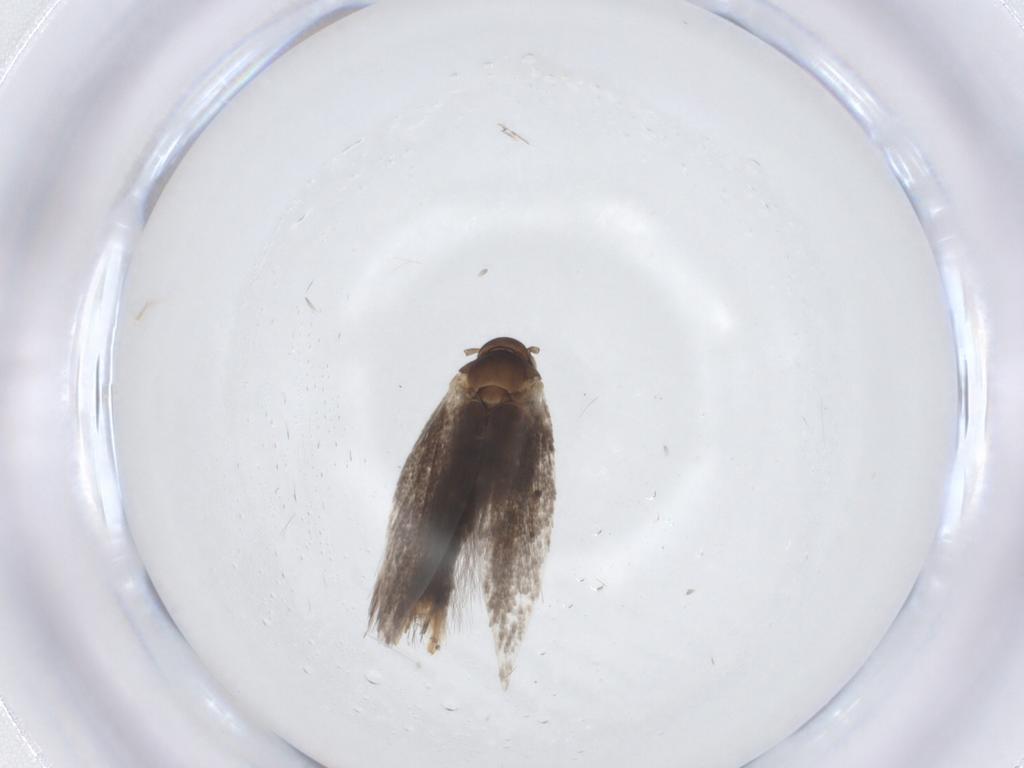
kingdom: Animalia
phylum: Arthropoda
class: Insecta
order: Lepidoptera
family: Elachistidae
